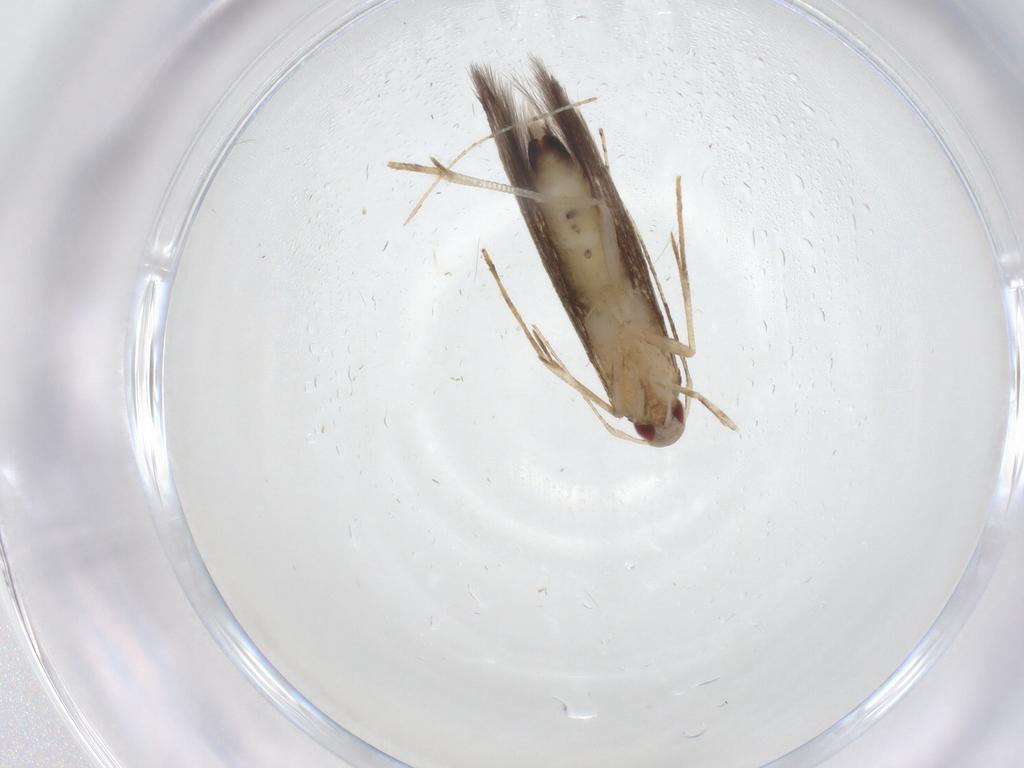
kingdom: Animalia
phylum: Arthropoda
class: Insecta
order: Lepidoptera
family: Cosmopterigidae
